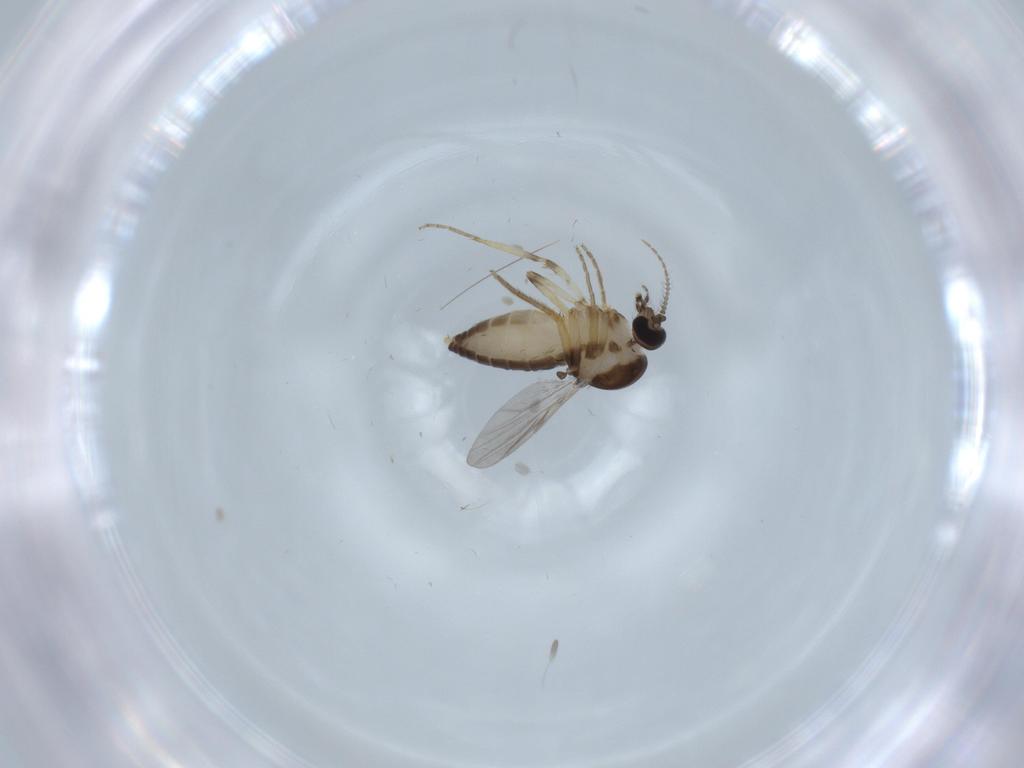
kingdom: Animalia
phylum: Arthropoda
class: Insecta
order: Diptera
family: Ceratopogonidae
